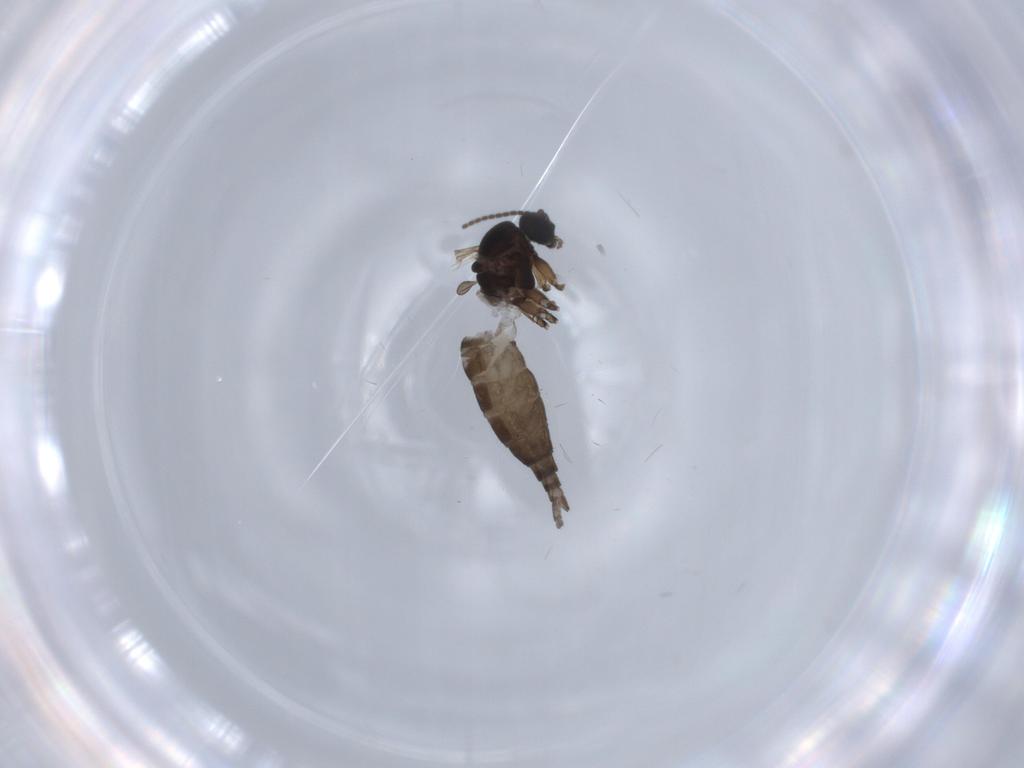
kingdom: Animalia
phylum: Arthropoda
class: Insecta
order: Diptera
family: Sciaridae
